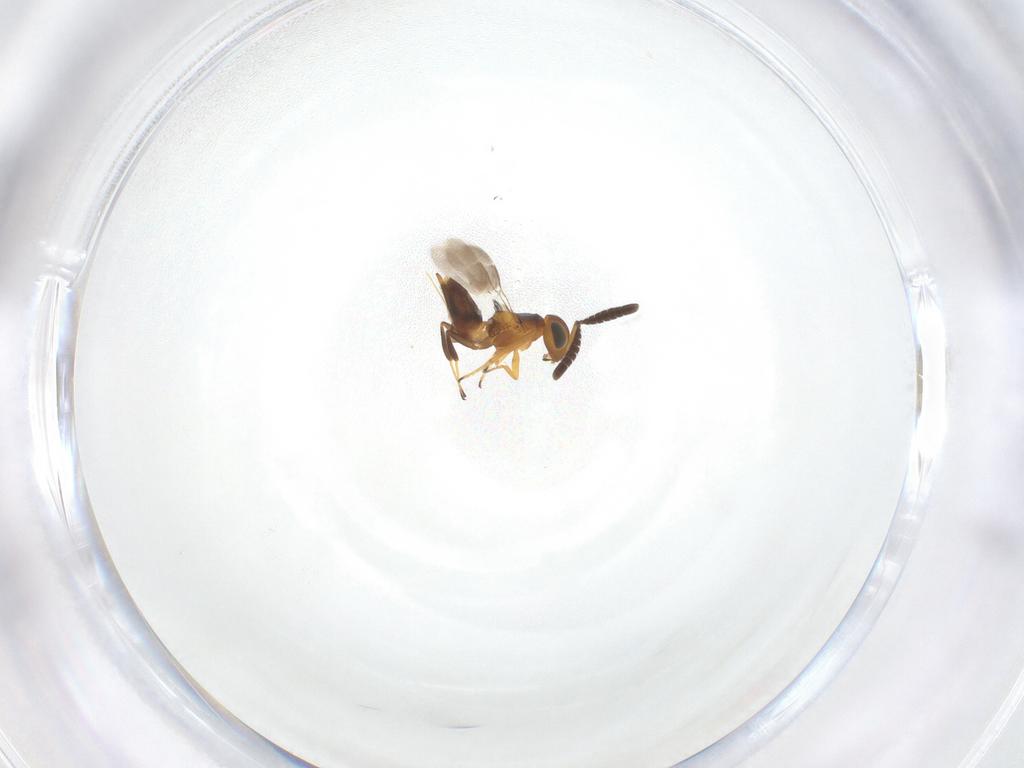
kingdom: Animalia
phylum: Arthropoda
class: Insecta
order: Hymenoptera
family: Encyrtidae
